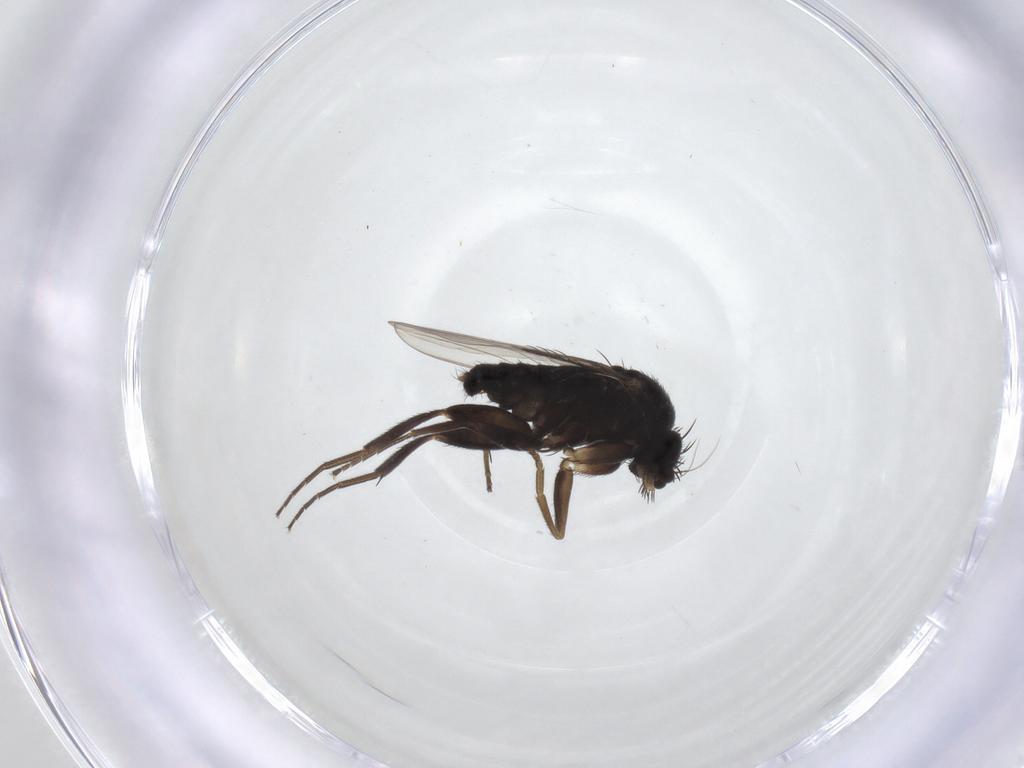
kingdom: Animalia
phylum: Arthropoda
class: Insecta
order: Diptera
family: Phoridae
